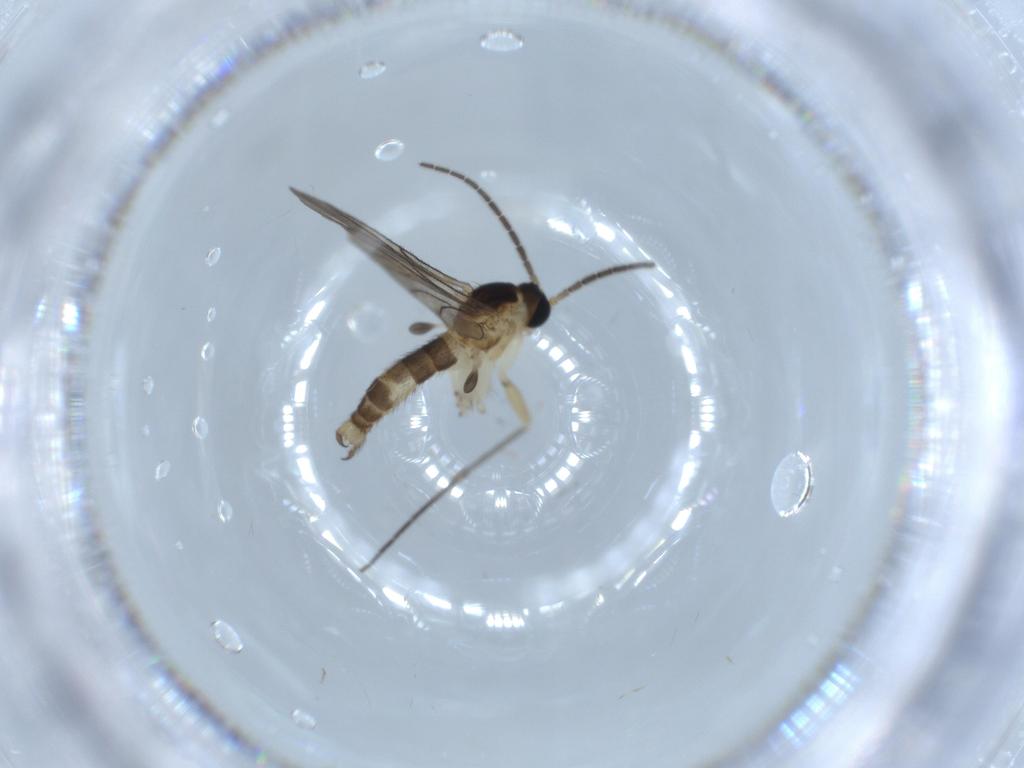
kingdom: Animalia
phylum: Arthropoda
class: Insecta
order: Diptera
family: Sciaridae
